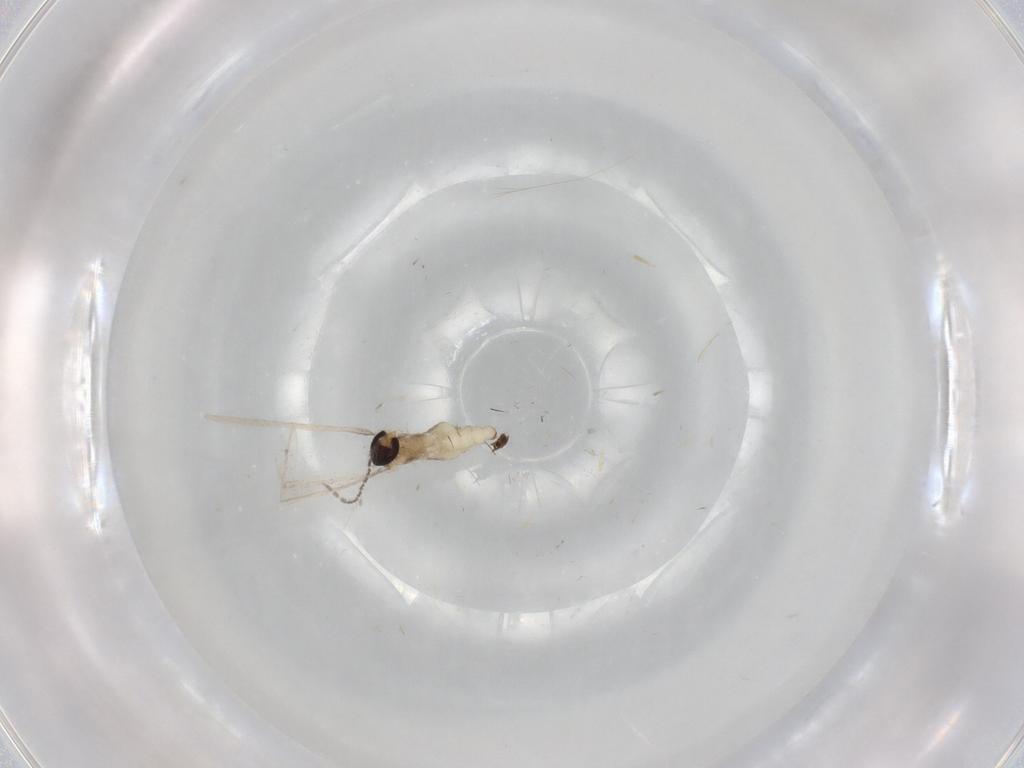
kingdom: Animalia
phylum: Arthropoda
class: Insecta
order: Diptera
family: Cecidomyiidae
